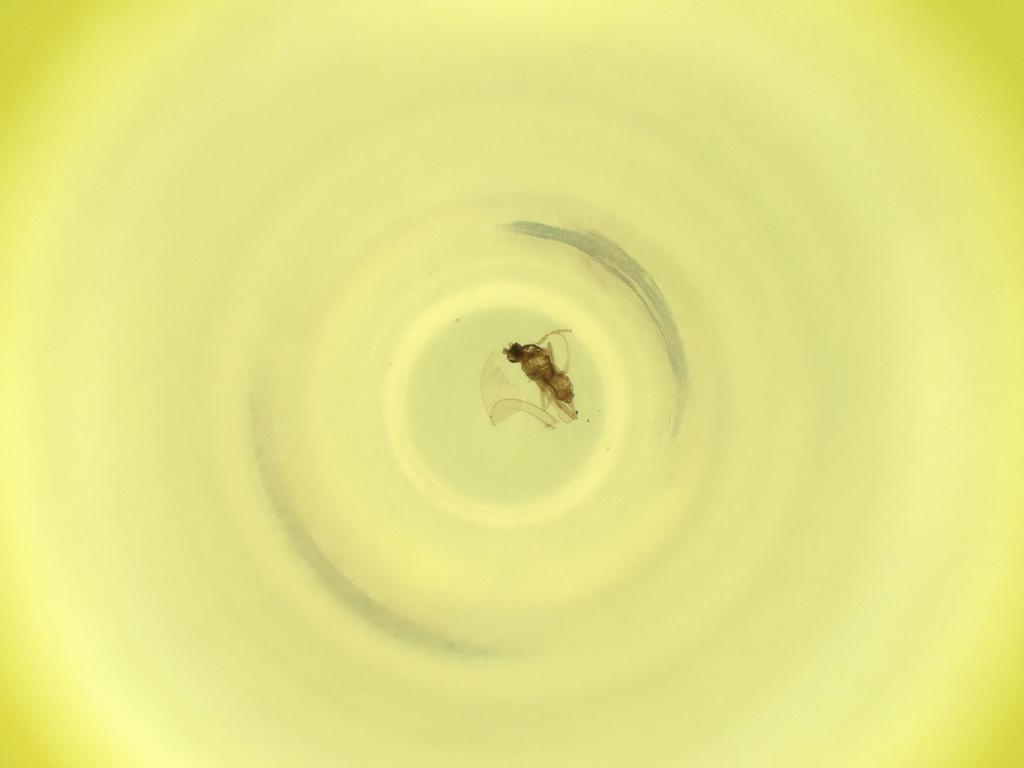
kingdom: Animalia
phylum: Arthropoda
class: Insecta
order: Diptera
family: Cecidomyiidae
